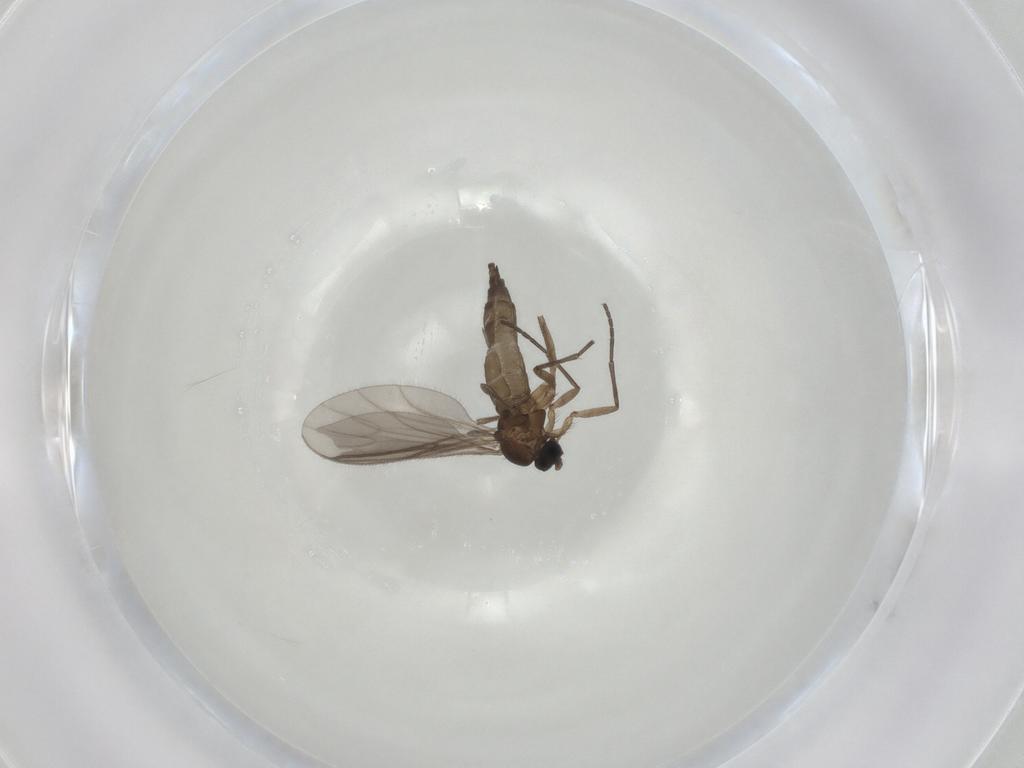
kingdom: Animalia
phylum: Arthropoda
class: Insecta
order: Diptera
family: Sciaridae
